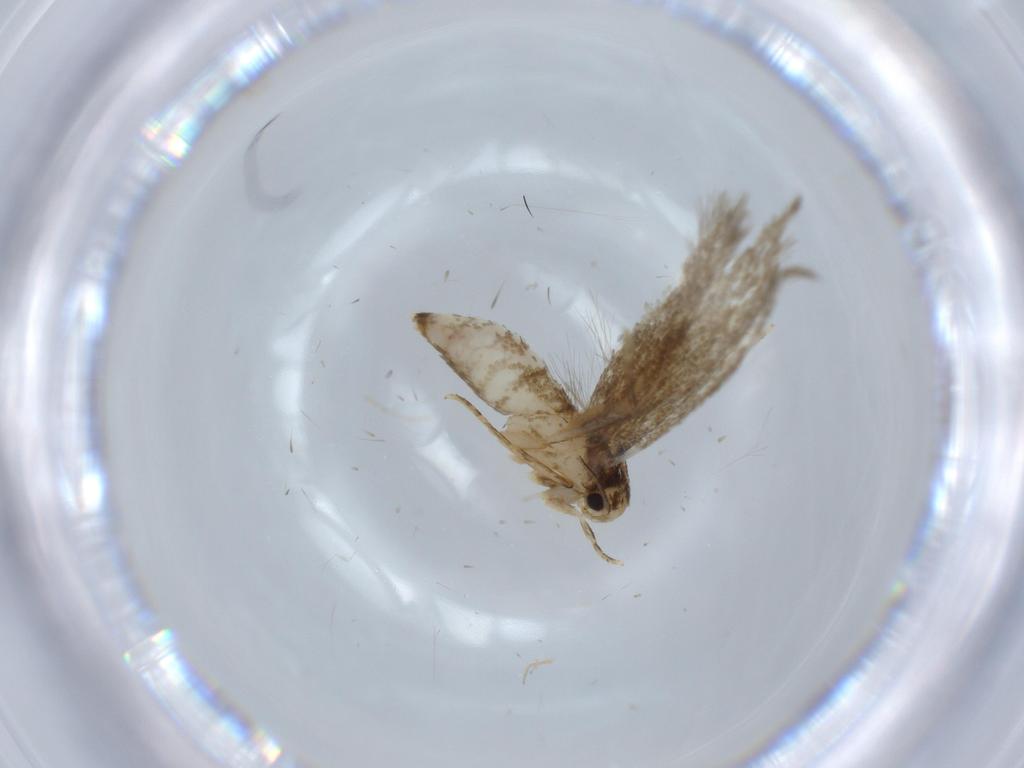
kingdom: Animalia
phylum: Arthropoda
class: Insecta
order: Lepidoptera
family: Tineidae
